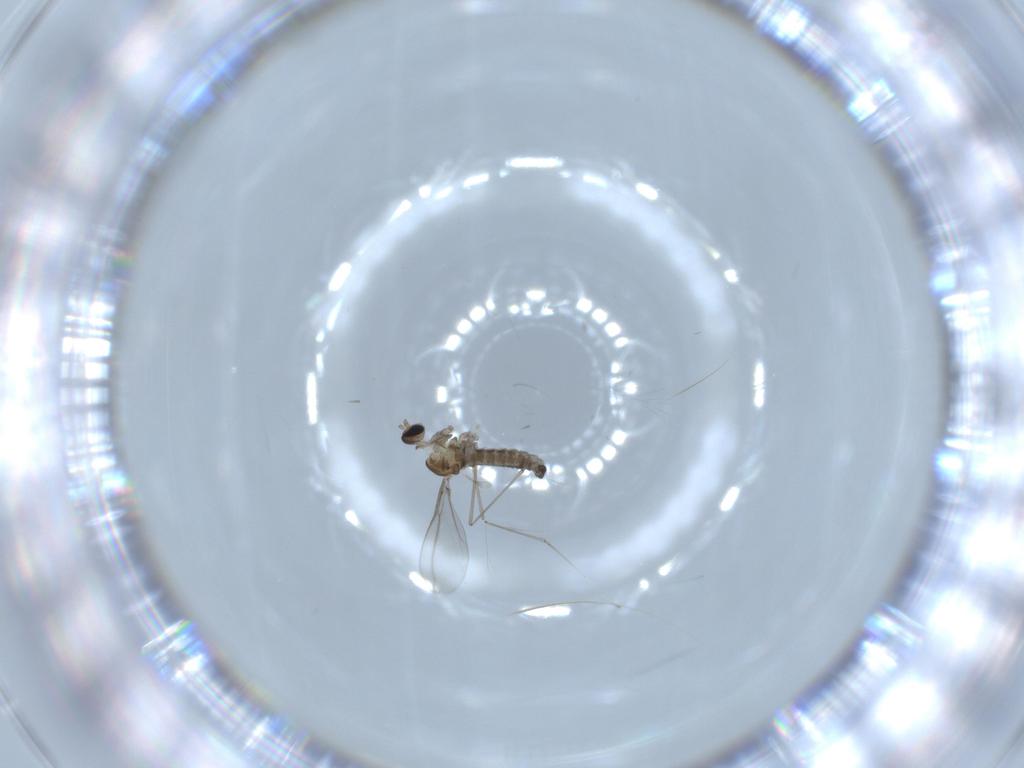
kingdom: Animalia
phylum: Arthropoda
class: Insecta
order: Diptera
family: Cecidomyiidae
